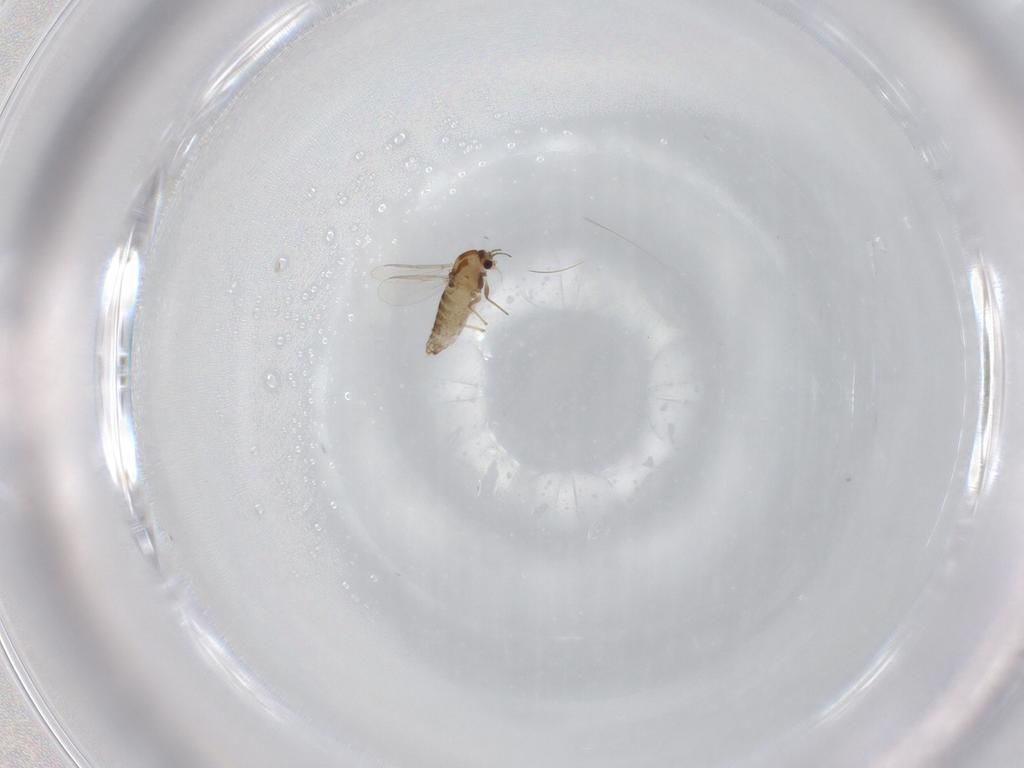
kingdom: Animalia
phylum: Arthropoda
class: Insecta
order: Diptera
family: Chironomidae
